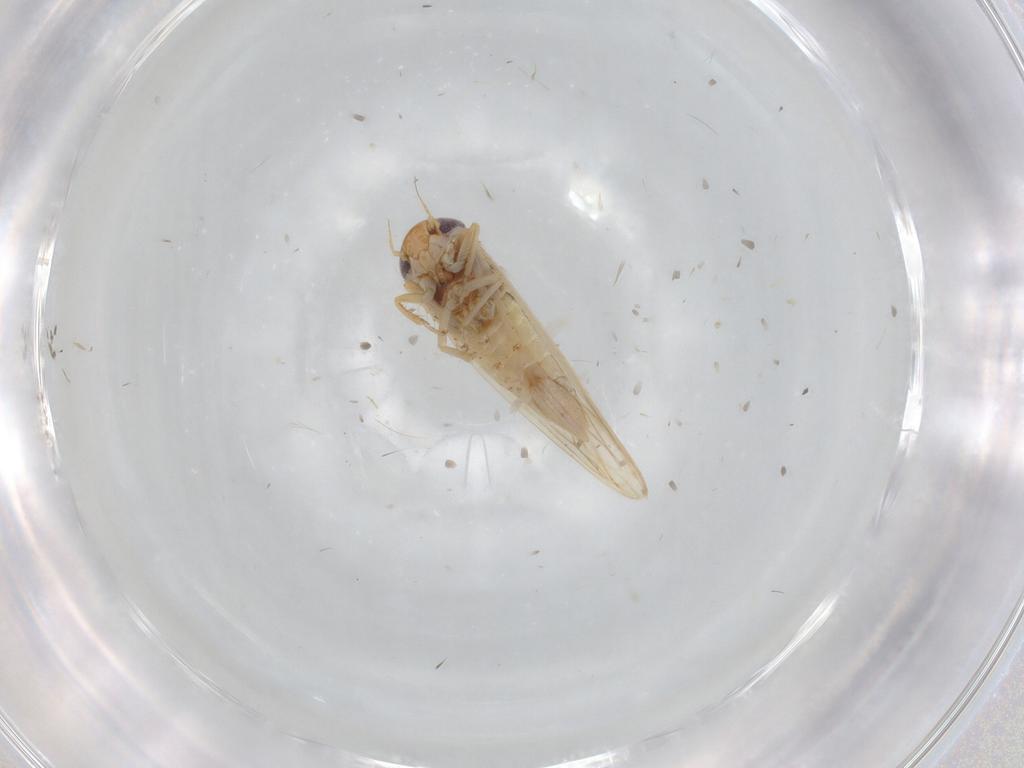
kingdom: Animalia
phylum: Arthropoda
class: Insecta
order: Hemiptera
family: Cicadellidae
